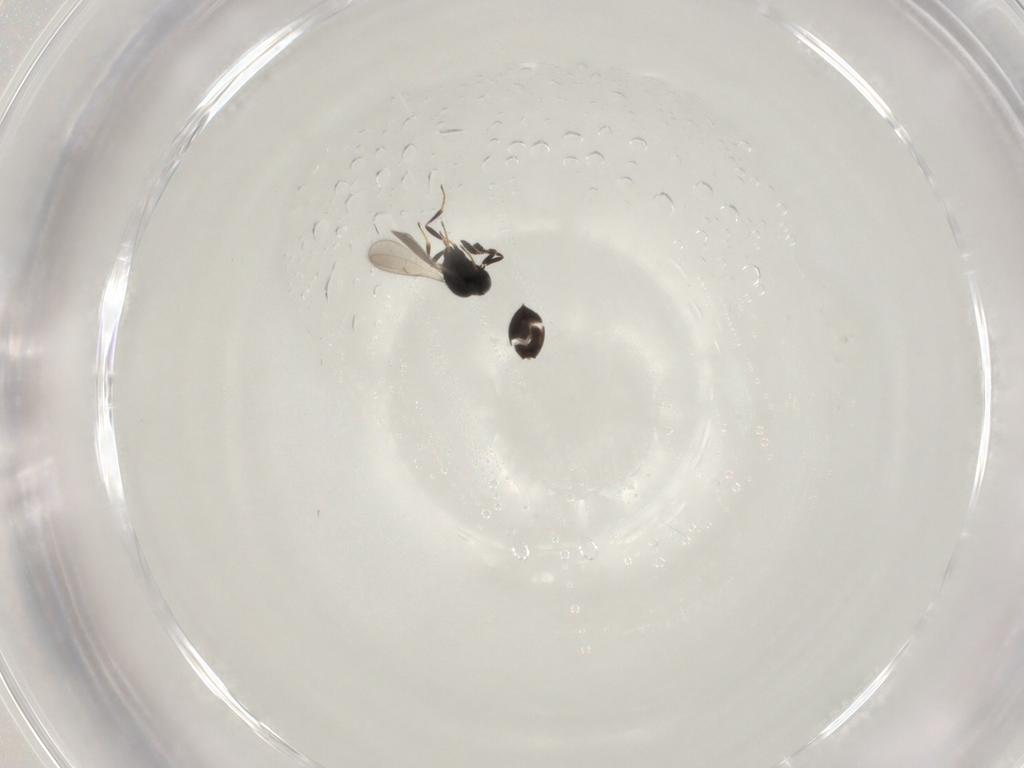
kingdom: Animalia
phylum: Arthropoda
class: Insecta
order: Hymenoptera
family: Scelionidae
